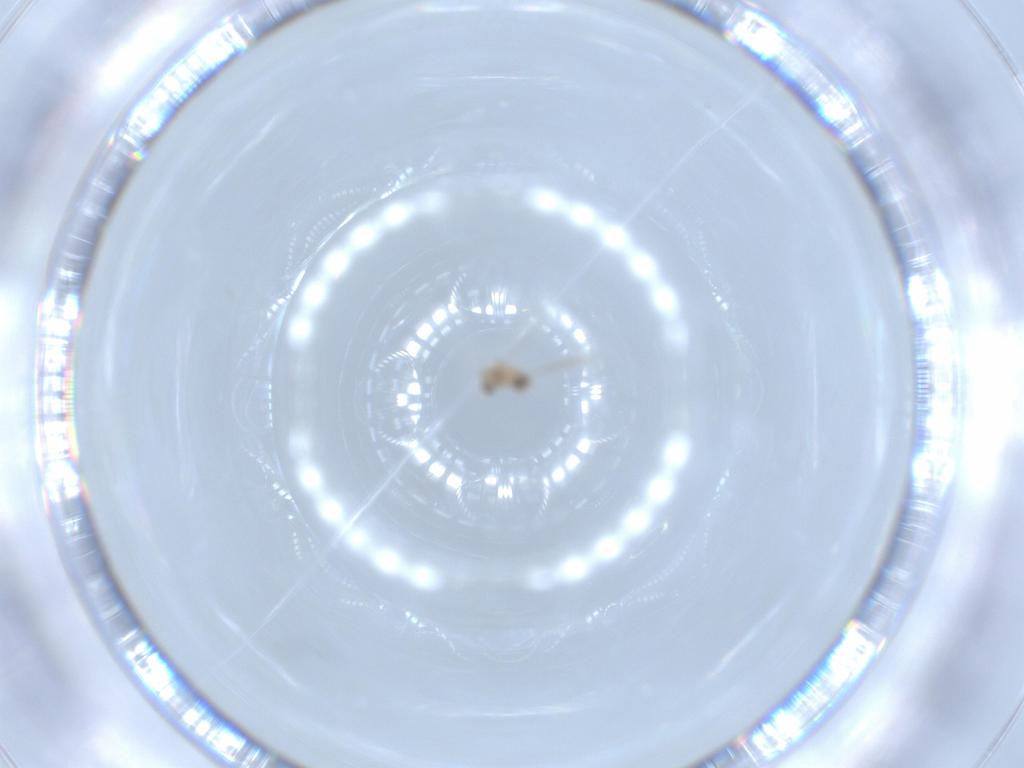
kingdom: Animalia
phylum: Arthropoda
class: Insecta
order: Diptera
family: Cecidomyiidae
